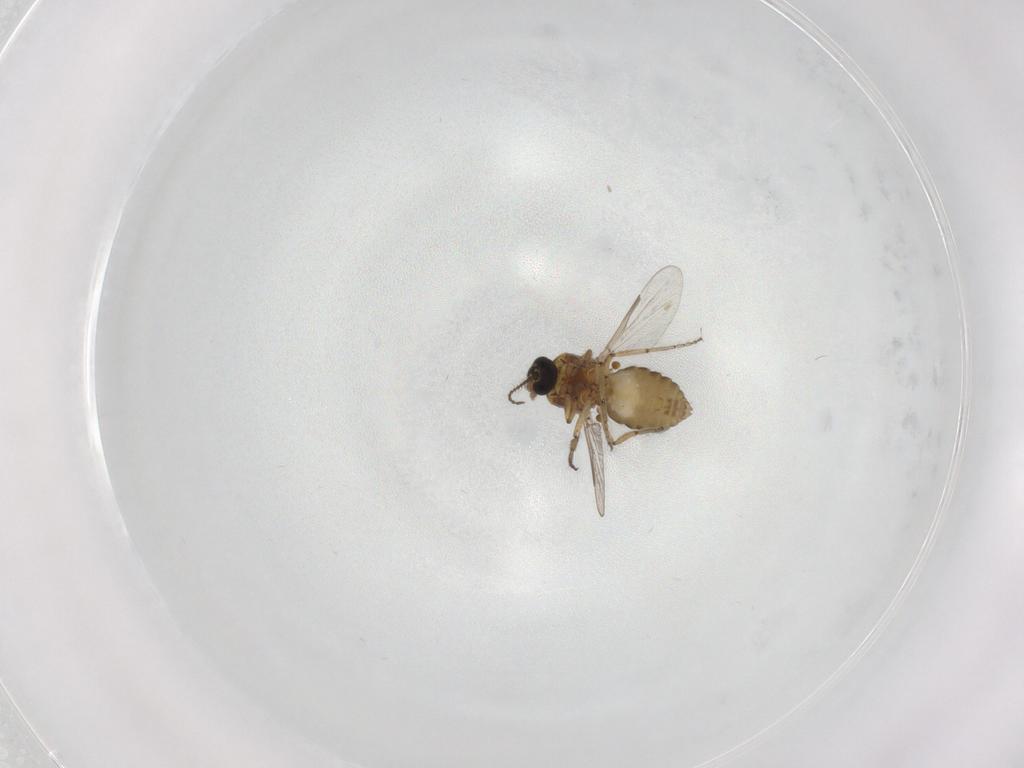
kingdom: Animalia
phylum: Arthropoda
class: Insecta
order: Diptera
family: Ceratopogonidae
